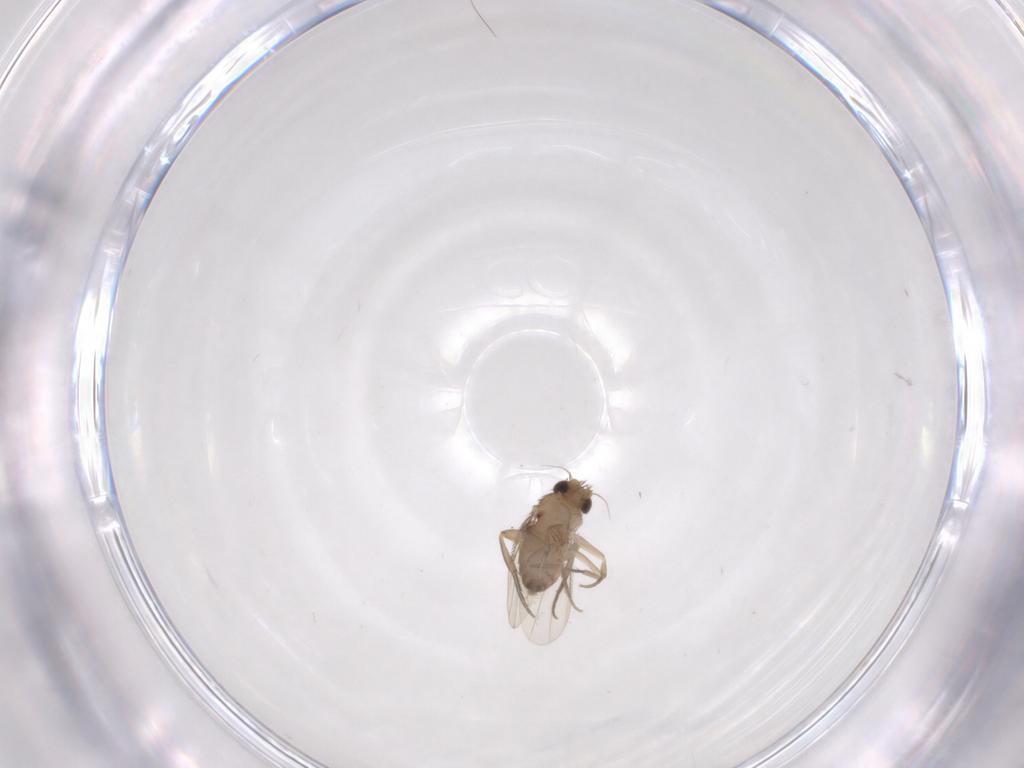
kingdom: Animalia
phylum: Arthropoda
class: Insecta
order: Diptera
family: Phoridae
